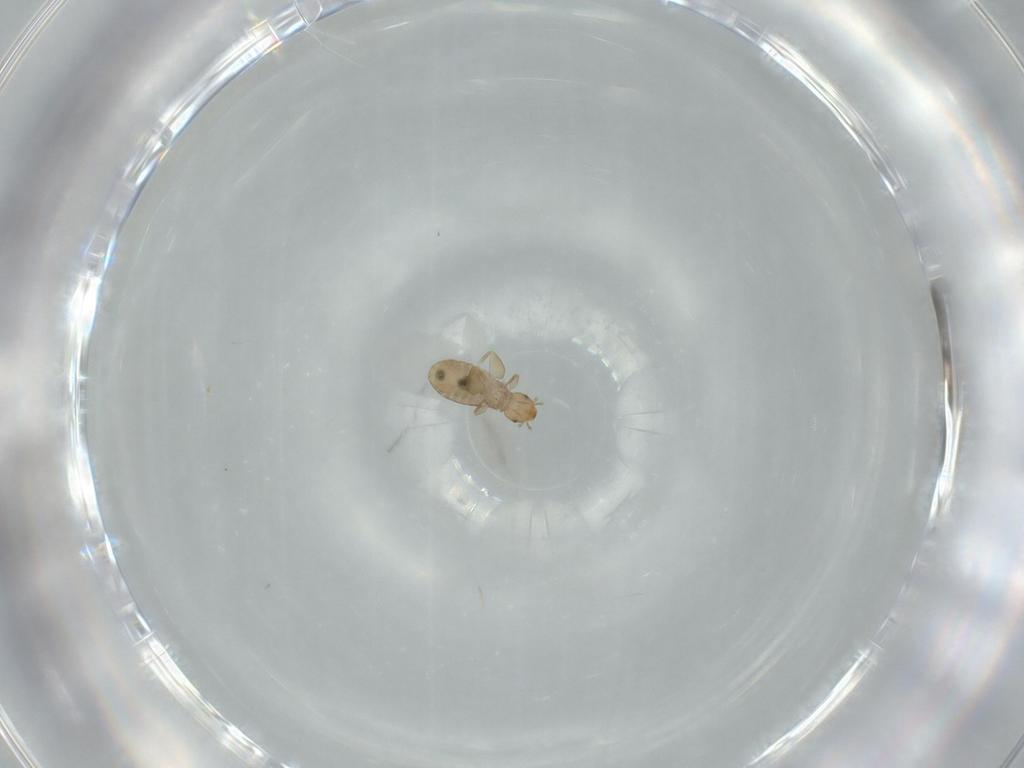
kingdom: Animalia
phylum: Arthropoda
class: Insecta
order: Psocodea
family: Liposcelididae
